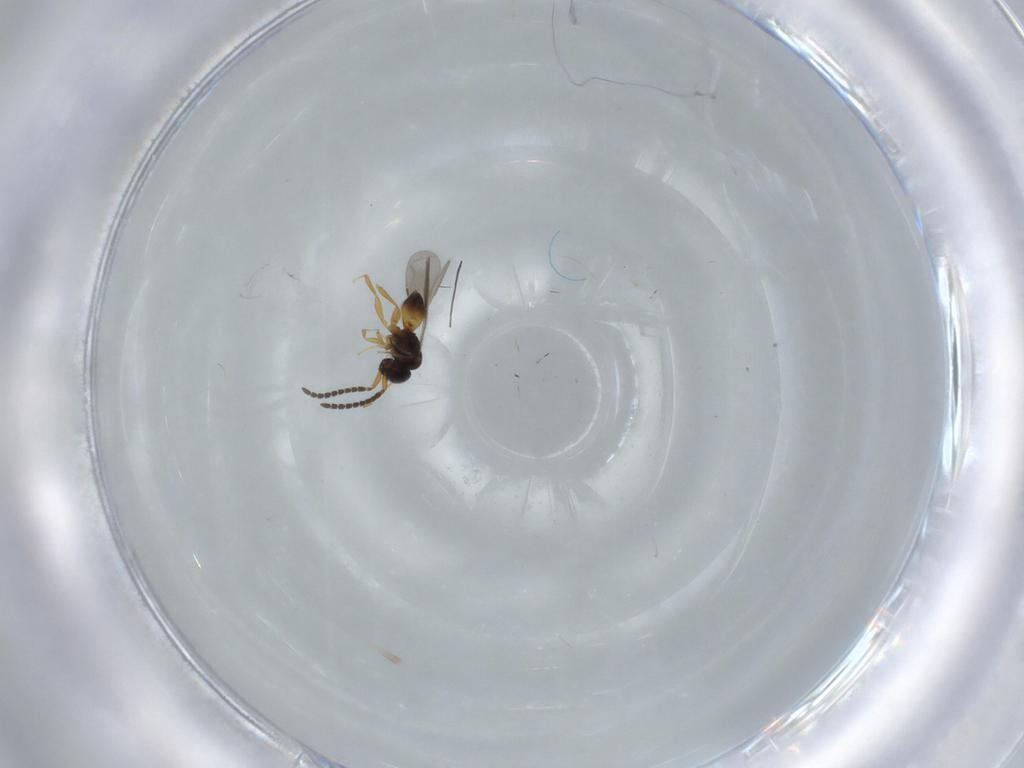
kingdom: Animalia
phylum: Arthropoda
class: Insecta
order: Hymenoptera
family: Scelionidae
